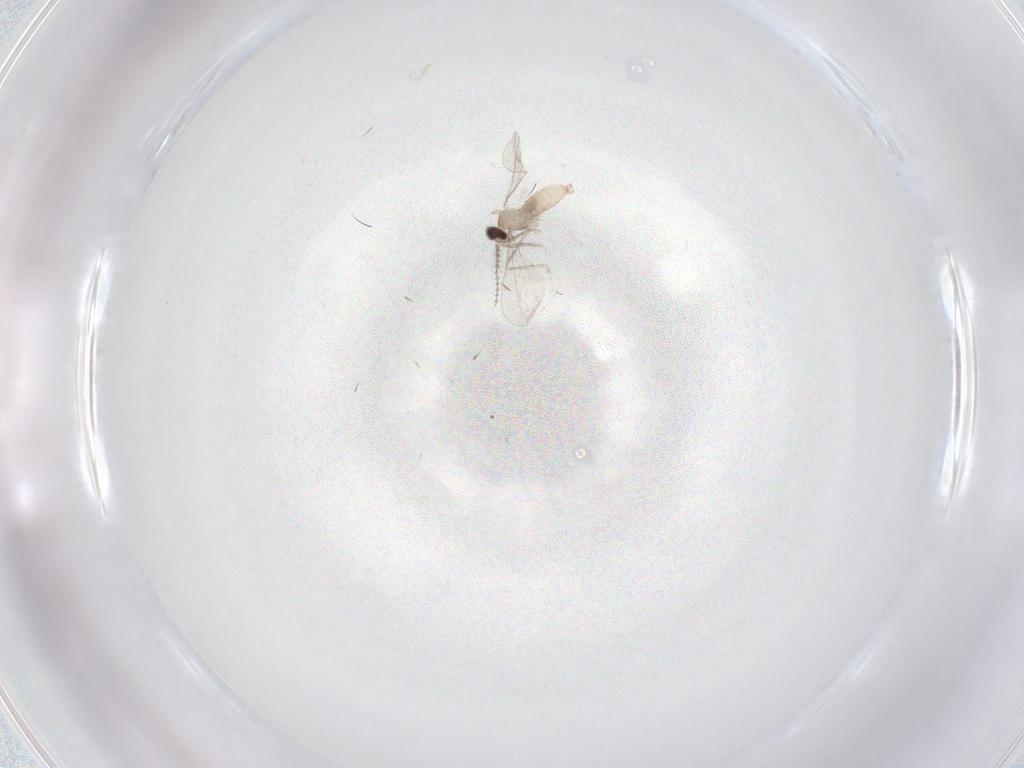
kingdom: Animalia
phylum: Arthropoda
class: Insecta
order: Diptera
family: Cecidomyiidae
